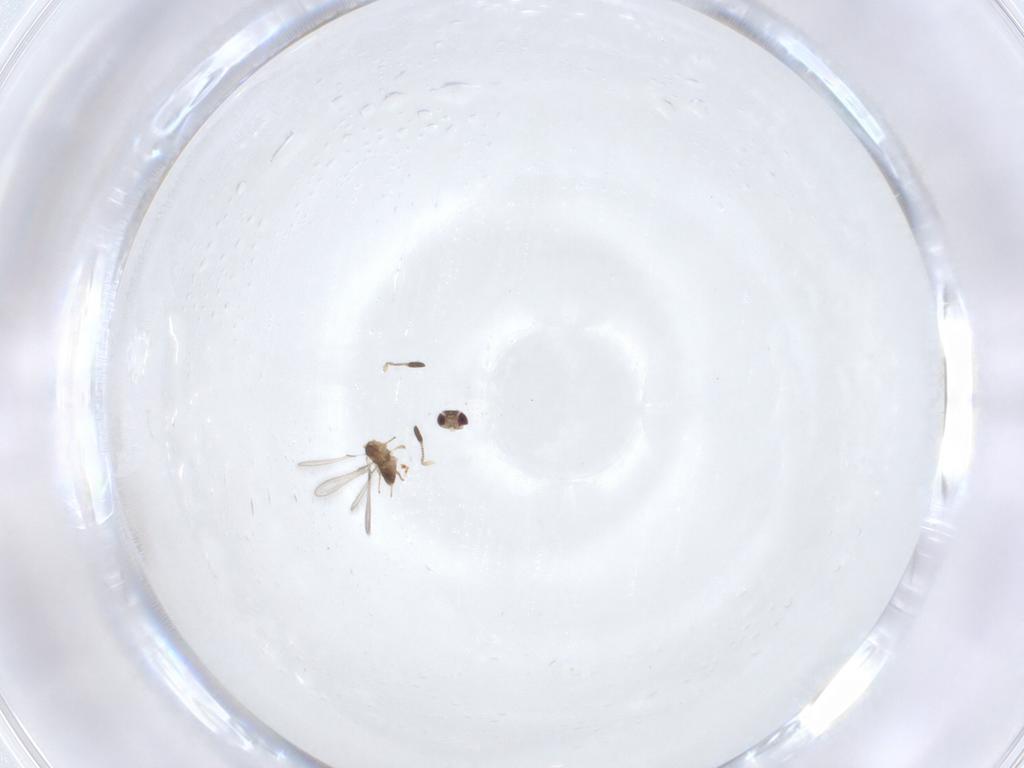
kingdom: Animalia
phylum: Arthropoda
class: Insecta
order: Hymenoptera
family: Mymaridae
